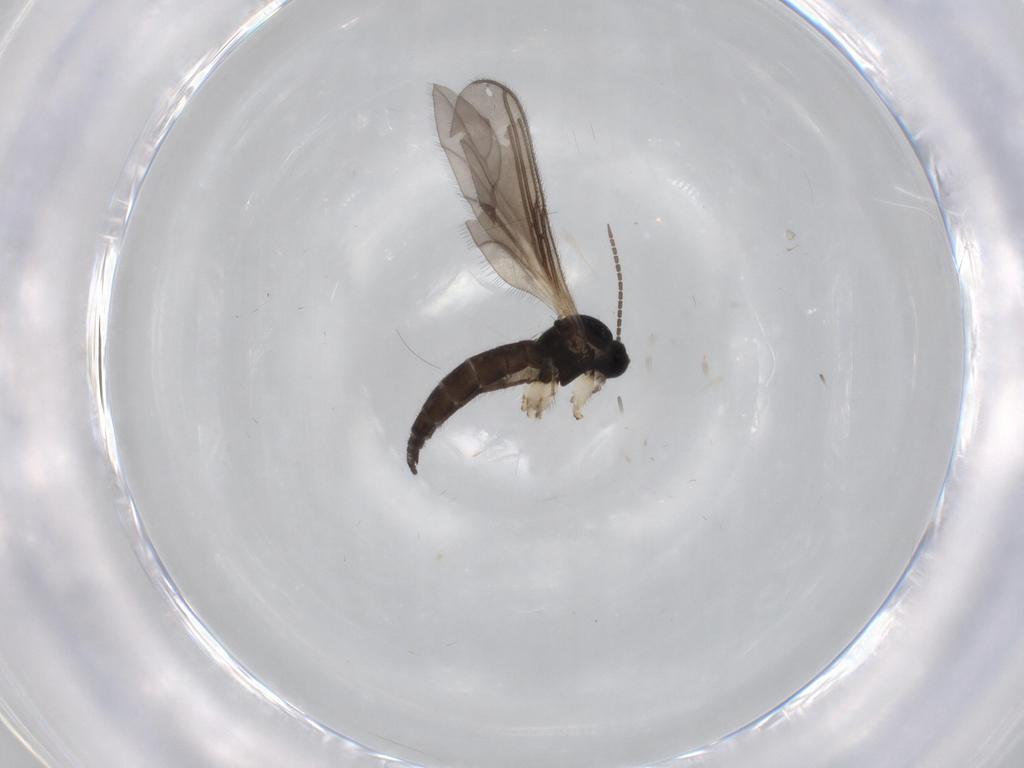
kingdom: Animalia
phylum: Arthropoda
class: Insecta
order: Diptera
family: Sciaridae
